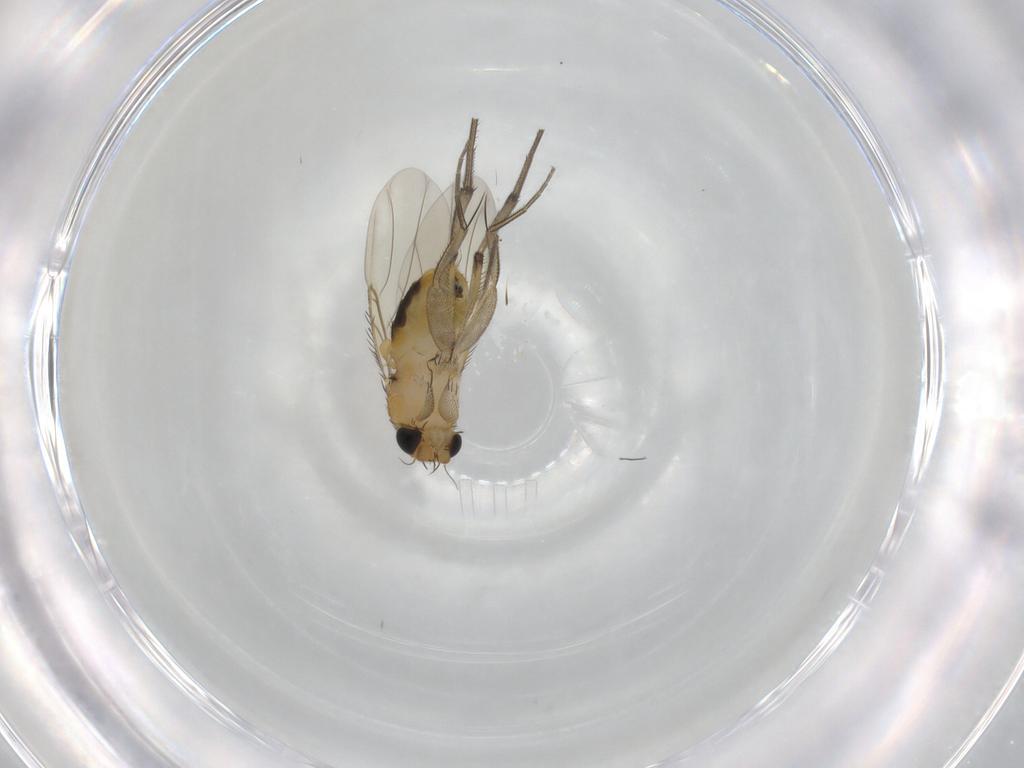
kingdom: Animalia
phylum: Arthropoda
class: Insecta
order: Diptera
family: Phoridae
